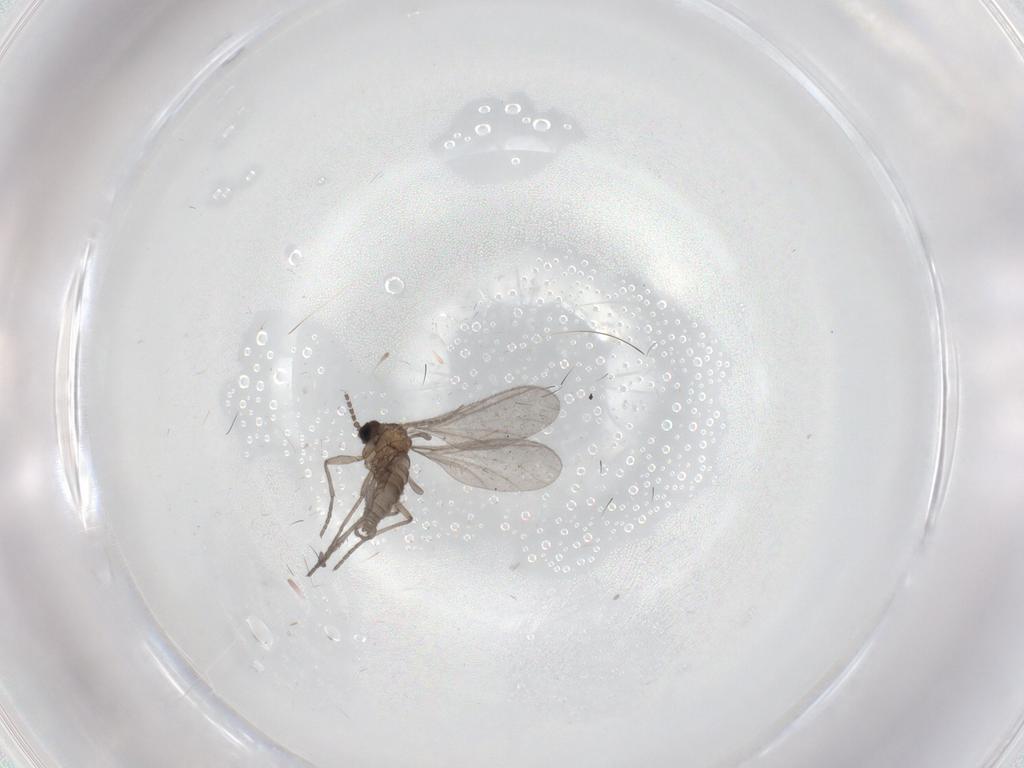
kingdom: Animalia
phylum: Arthropoda
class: Insecta
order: Diptera
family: Sciaridae
